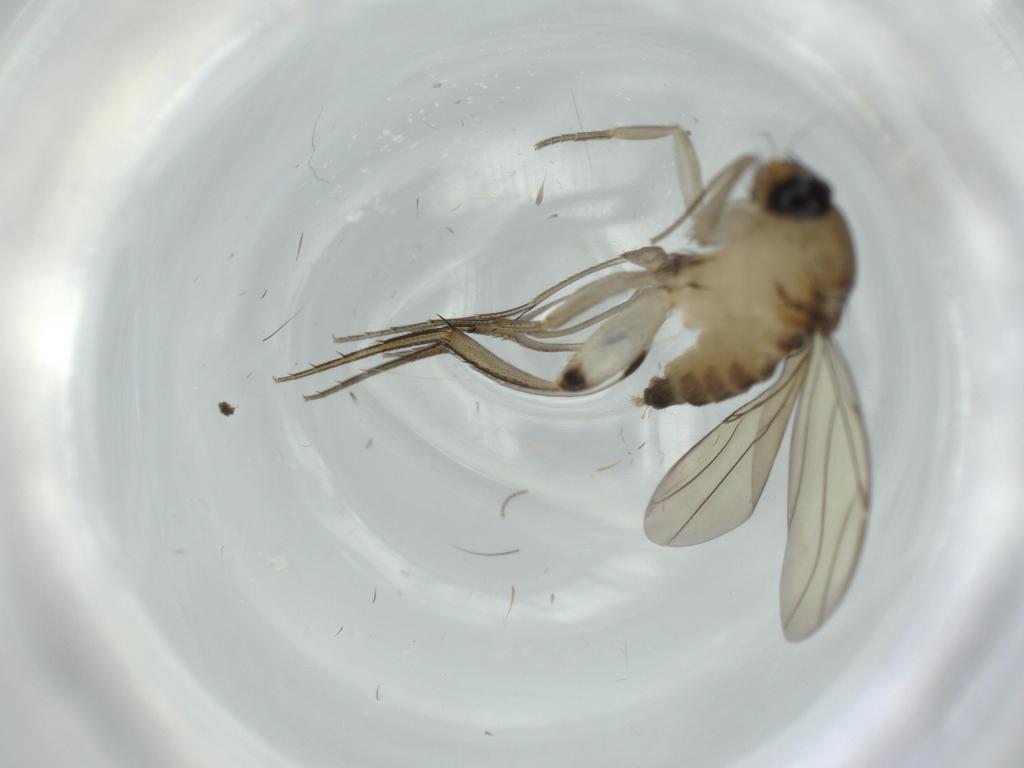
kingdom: Animalia
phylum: Arthropoda
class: Insecta
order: Diptera
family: Phoridae
